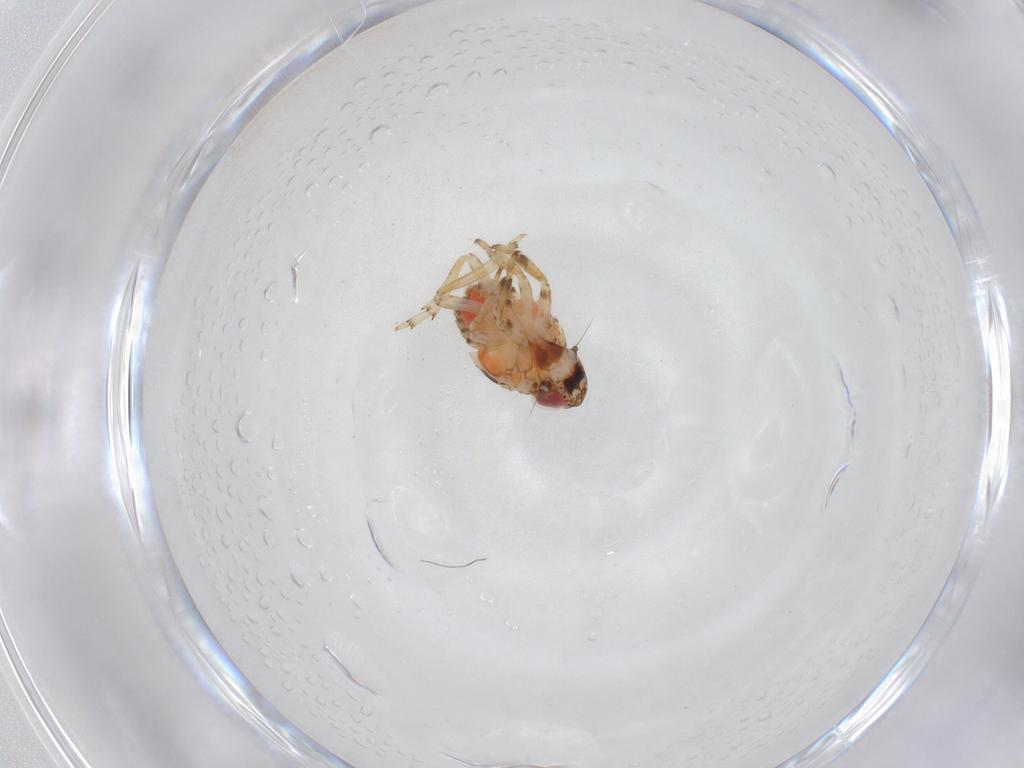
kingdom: Animalia
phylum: Arthropoda
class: Insecta
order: Hemiptera
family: Issidae
